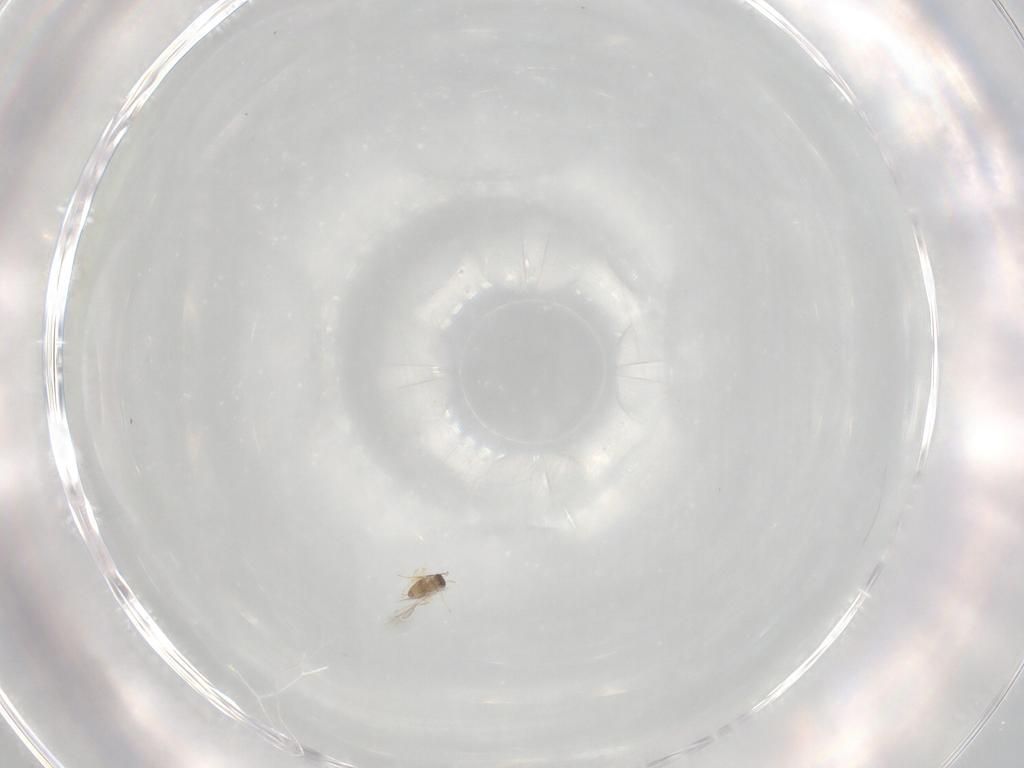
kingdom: Animalia
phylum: Arthropoda
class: Insecta
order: Hymenoptera
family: Mymaridae
